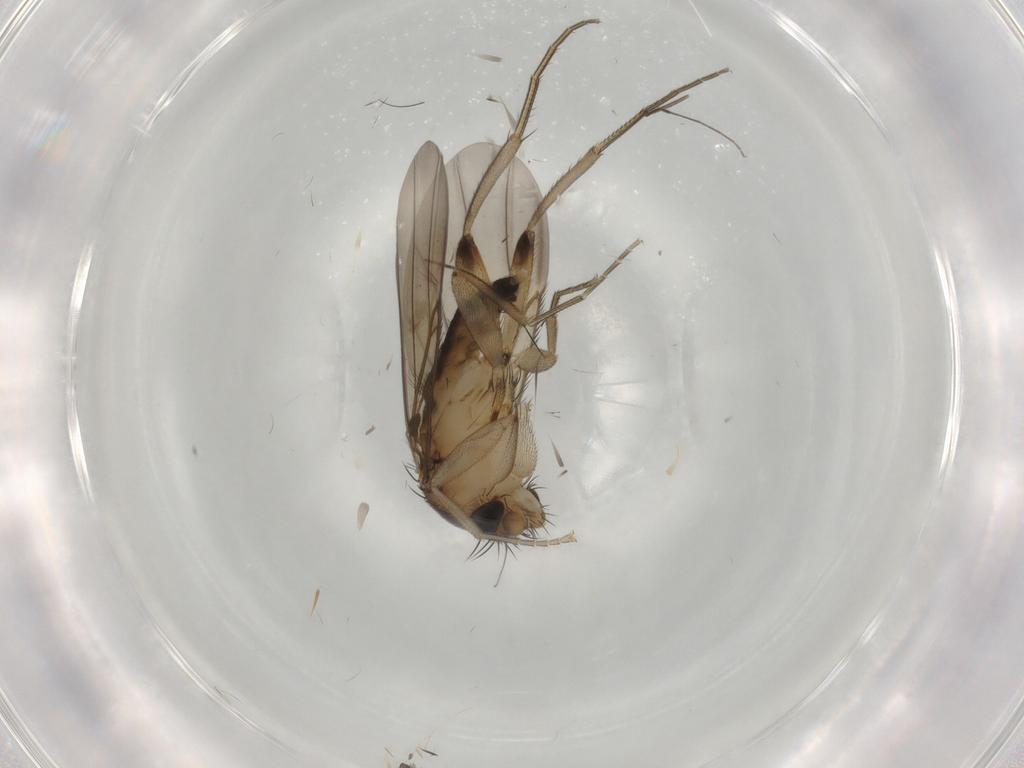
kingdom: Animalia
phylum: Arthropoda
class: Insecta
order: Diptera
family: Phoridae
